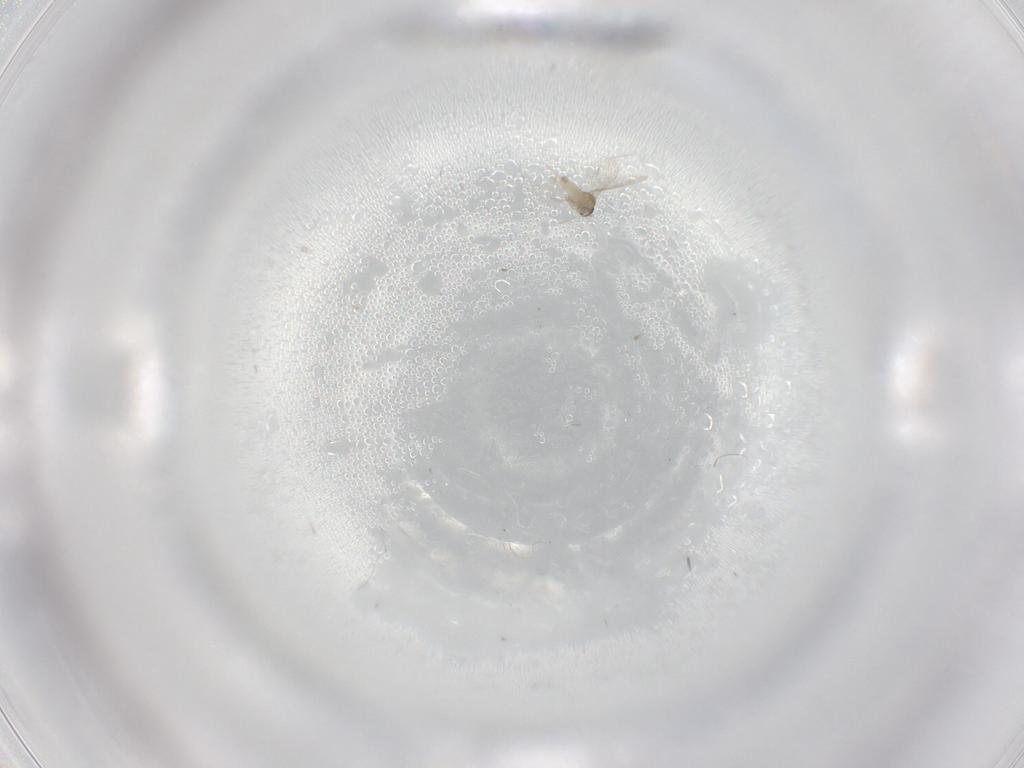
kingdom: Animalia
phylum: Arthropoda
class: Insecta
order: Diptera
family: Cecidomyiidae
